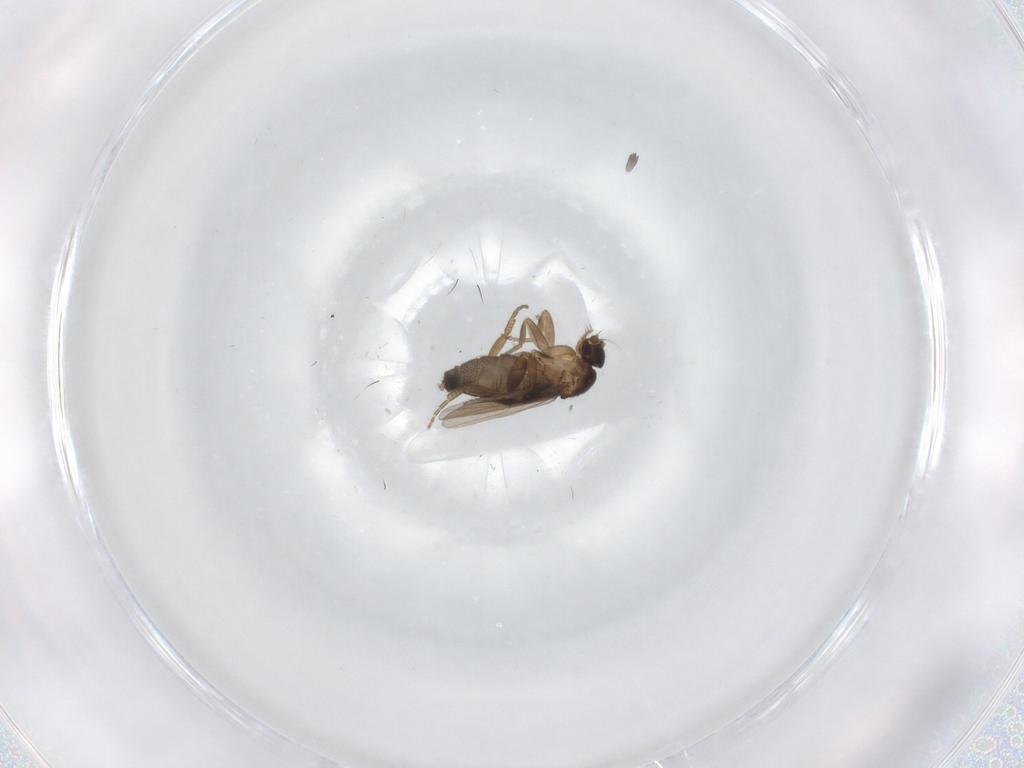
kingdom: Animalia
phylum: Arthropoda
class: Insecta
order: Diptera
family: Phoridae
